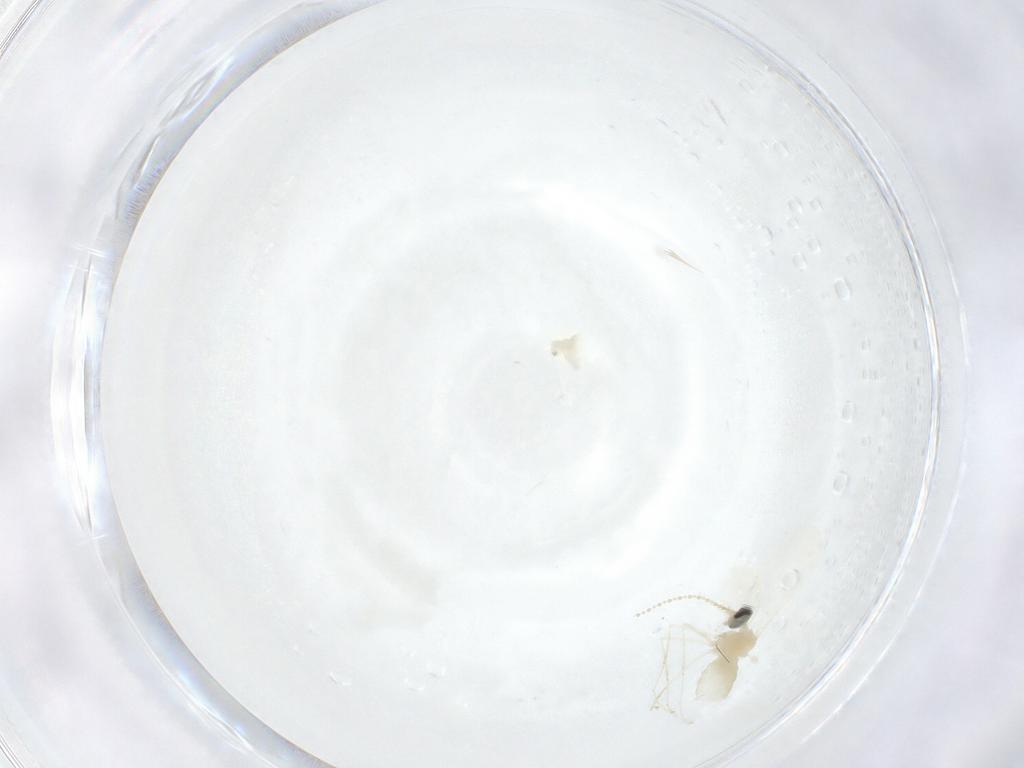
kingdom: Animalia
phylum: Arthropoda
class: Insecta
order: Diptera
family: Cecidomyiidae
